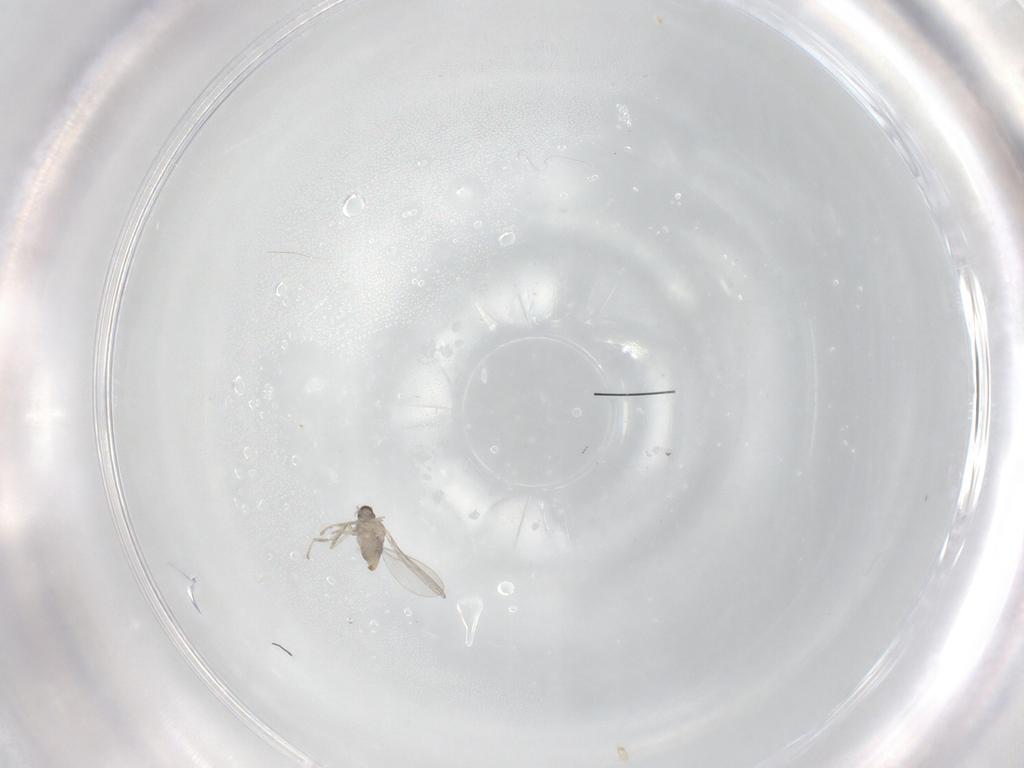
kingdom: Animalia
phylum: Arthropoda
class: Insecta
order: Diptera
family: Cecidomyiidae
